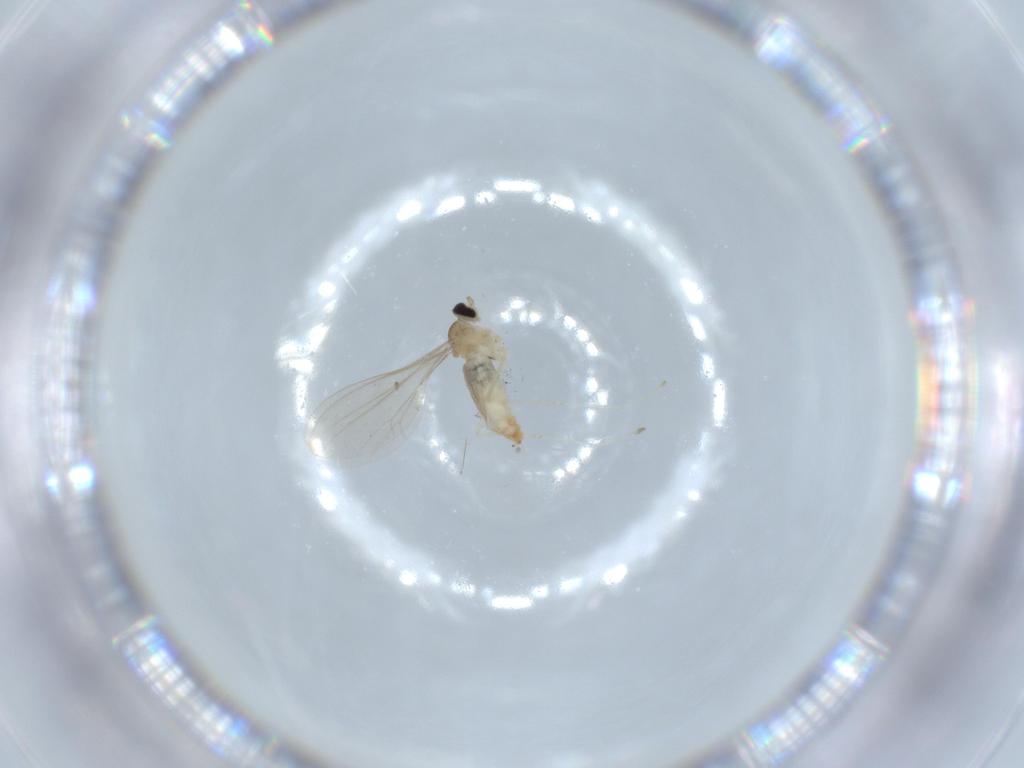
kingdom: Animalia
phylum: Arthropoda
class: Insecta
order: Diptera
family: Cecidomyiidae
